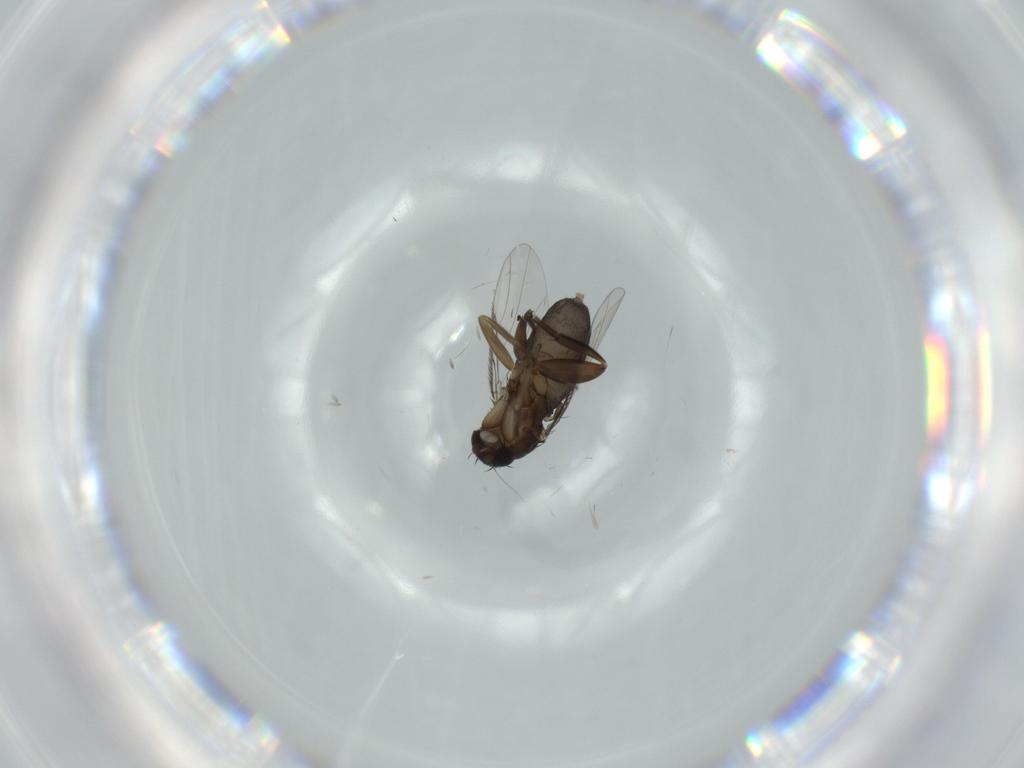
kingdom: Animalia
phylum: Arthropoda
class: Insecta
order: Diptera
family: Phoridae
